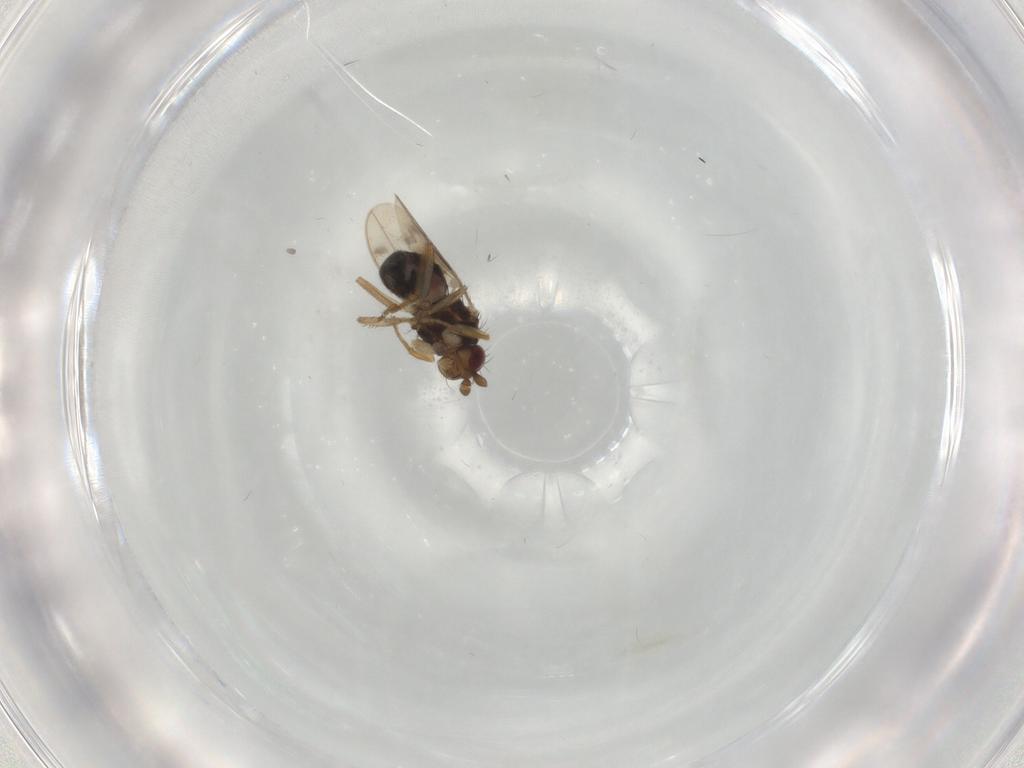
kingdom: Animalia
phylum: Arthropoda
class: Insecta
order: Diptera
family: Sphaeroceridae
